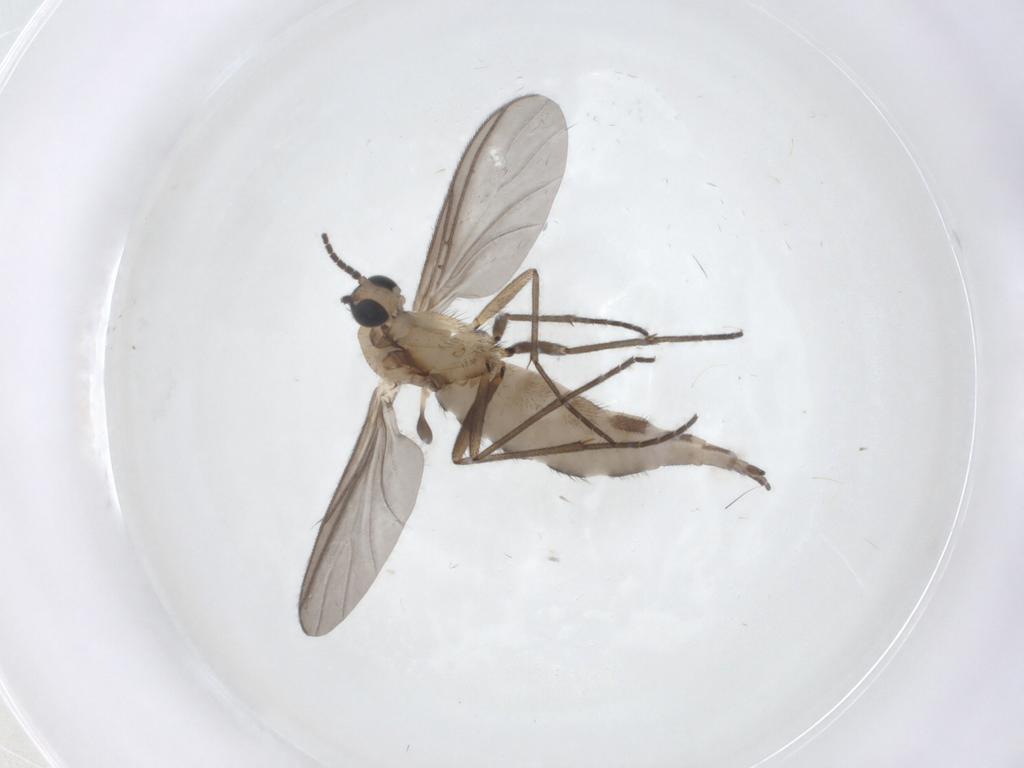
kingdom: Animalia
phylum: Arthropoda
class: Insecta
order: Diptera
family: Sciaridae
